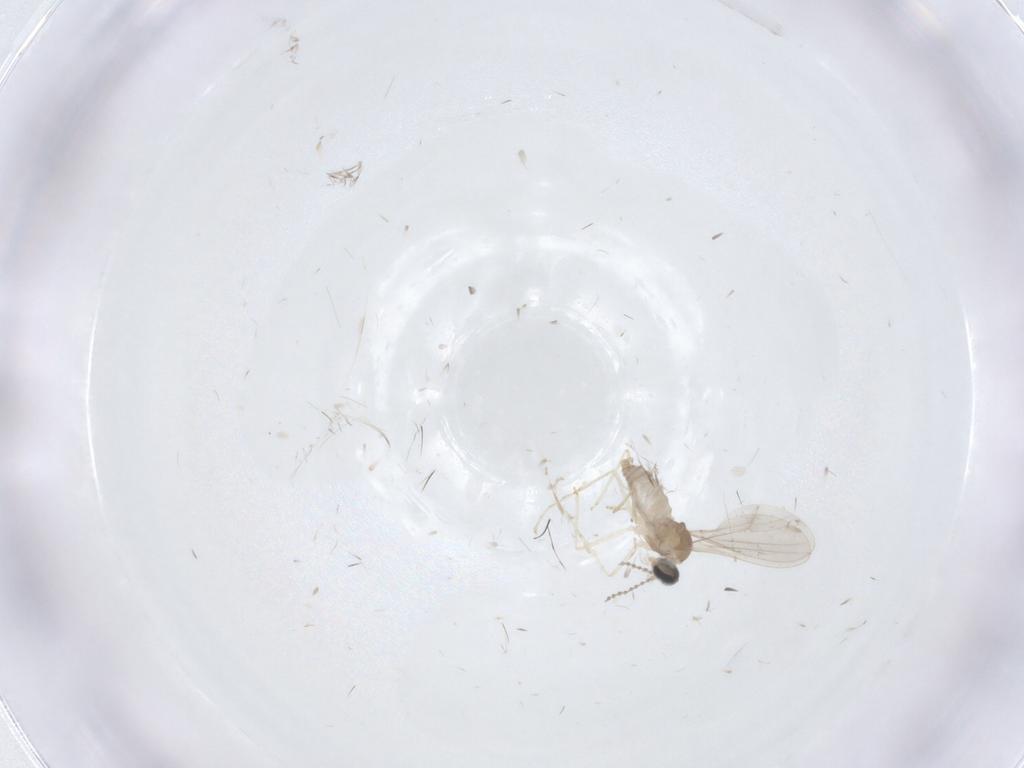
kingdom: Animalia
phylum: Arthropoda
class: Insecta
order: Diptera
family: Cecidomyiidae
